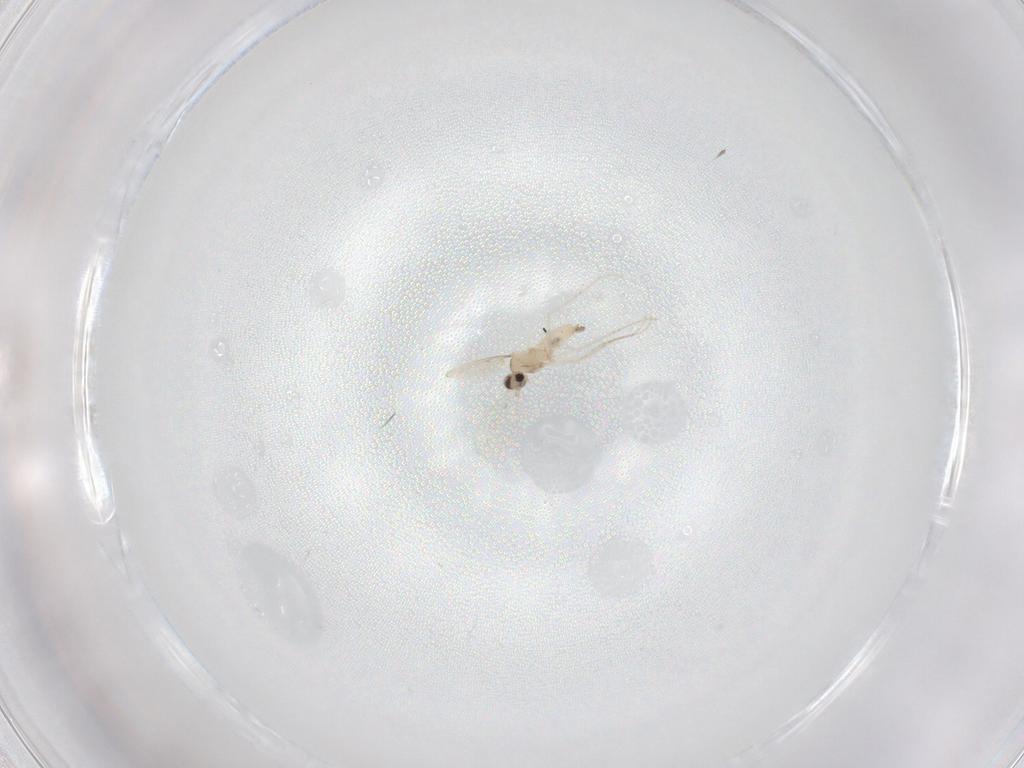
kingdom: Animalia
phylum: Arthropoda
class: Insecta
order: Diptera
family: Cecidomyiidae
